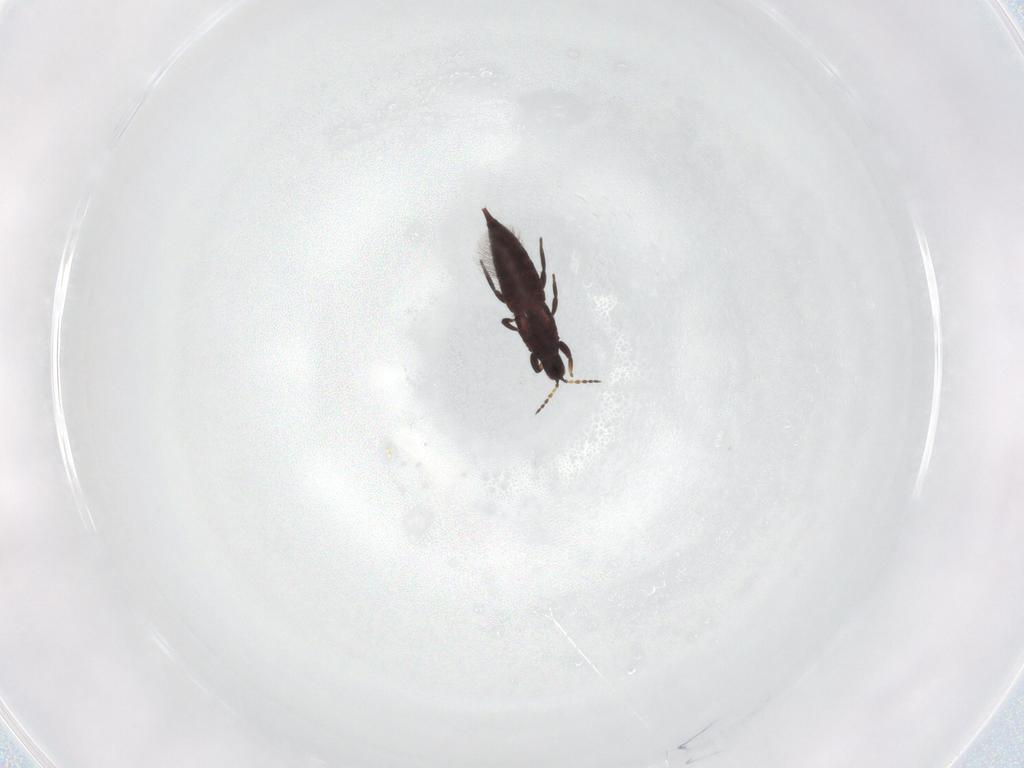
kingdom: Animalia
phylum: Arthropoda
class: Insecta
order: Thysanoptera
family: Phlaeothripidae
